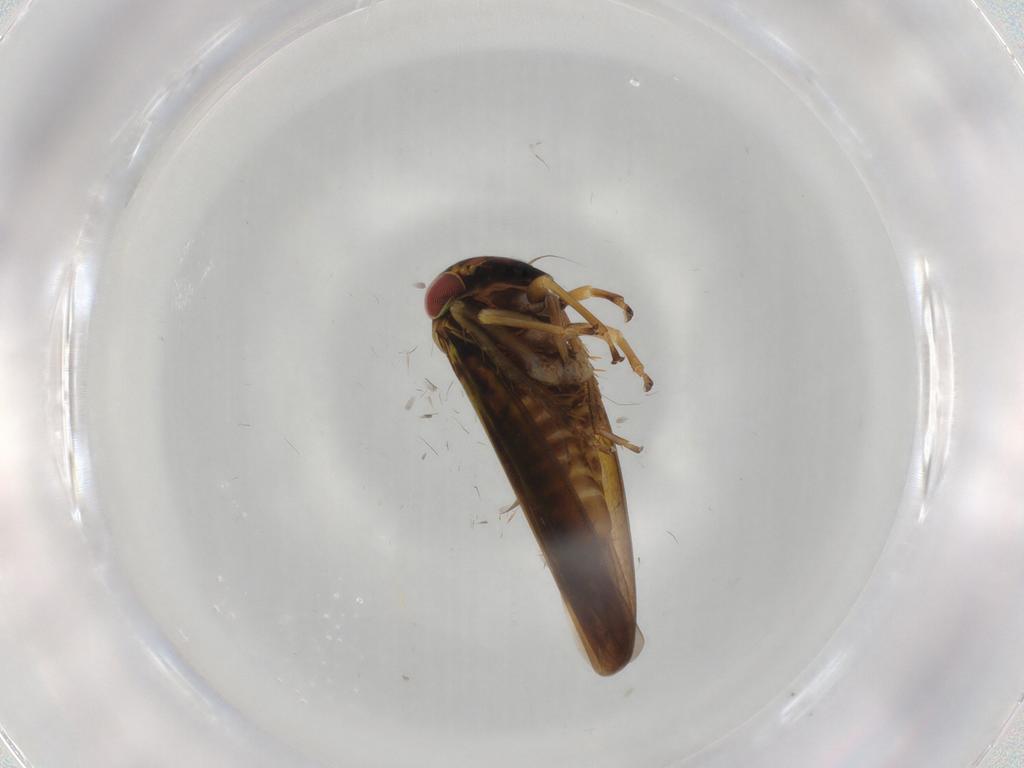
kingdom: Animalia
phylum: Arthropoda
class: Insecta
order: Hemiptera
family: Cicadellidae
